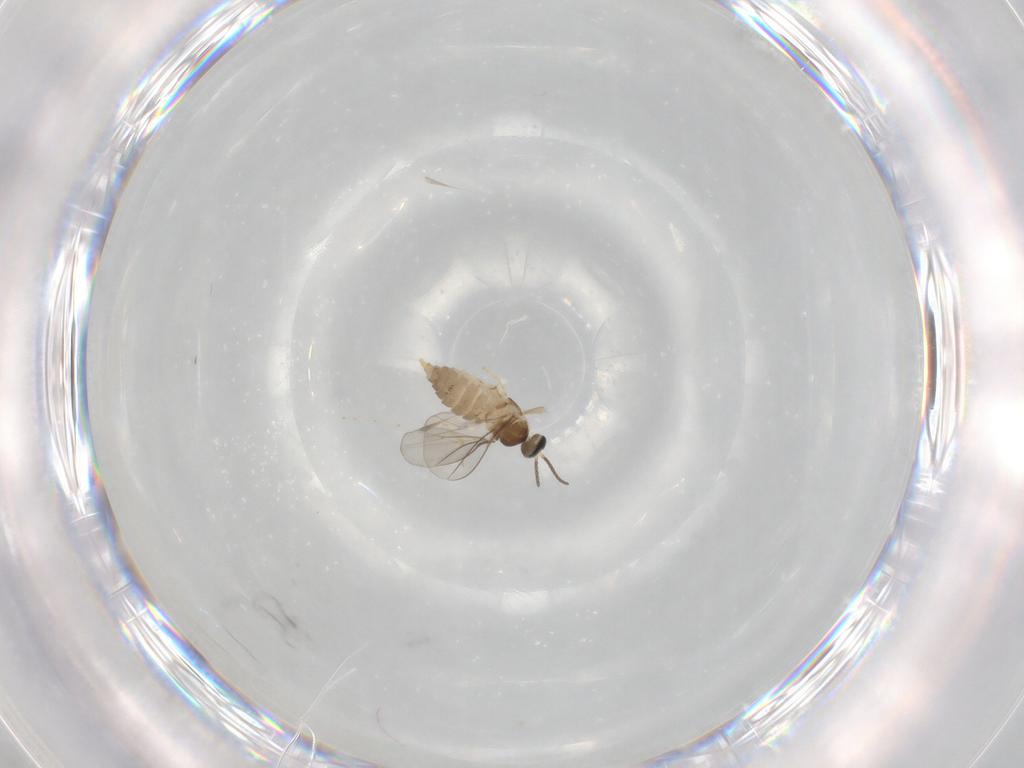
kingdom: Animalia
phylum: Arthropoda
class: Insecta
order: Diptera
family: Cecidomyiidae
